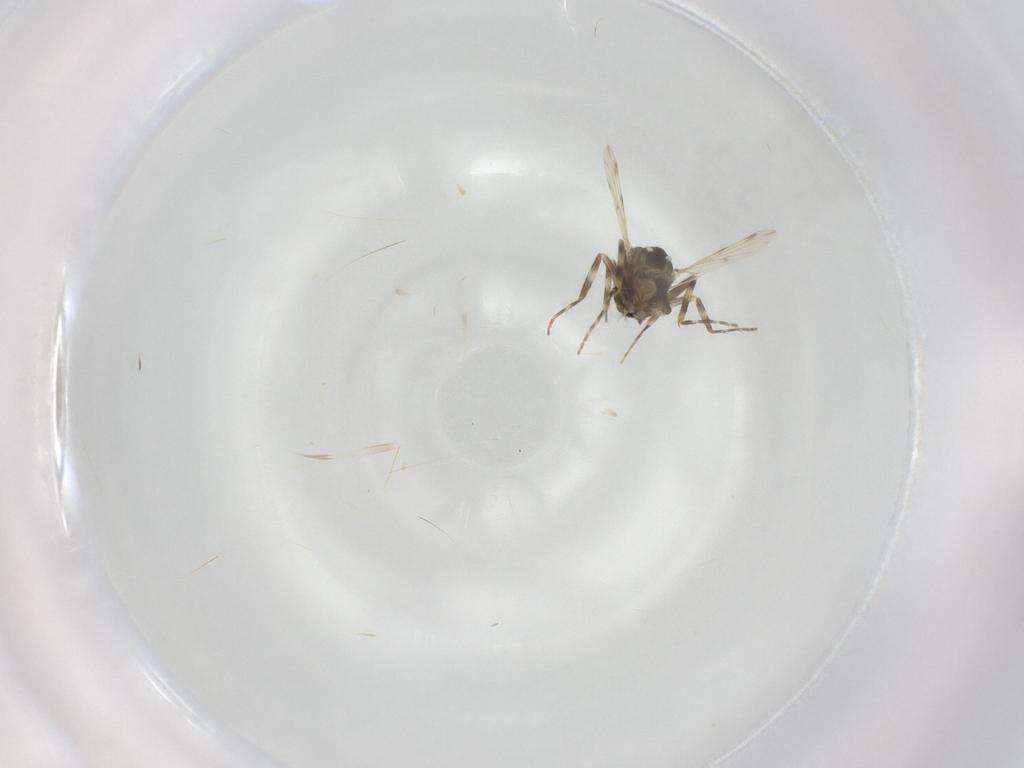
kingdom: Animalia
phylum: Arthropoda
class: Insecta
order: Diptera
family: Ceratopogonidae
